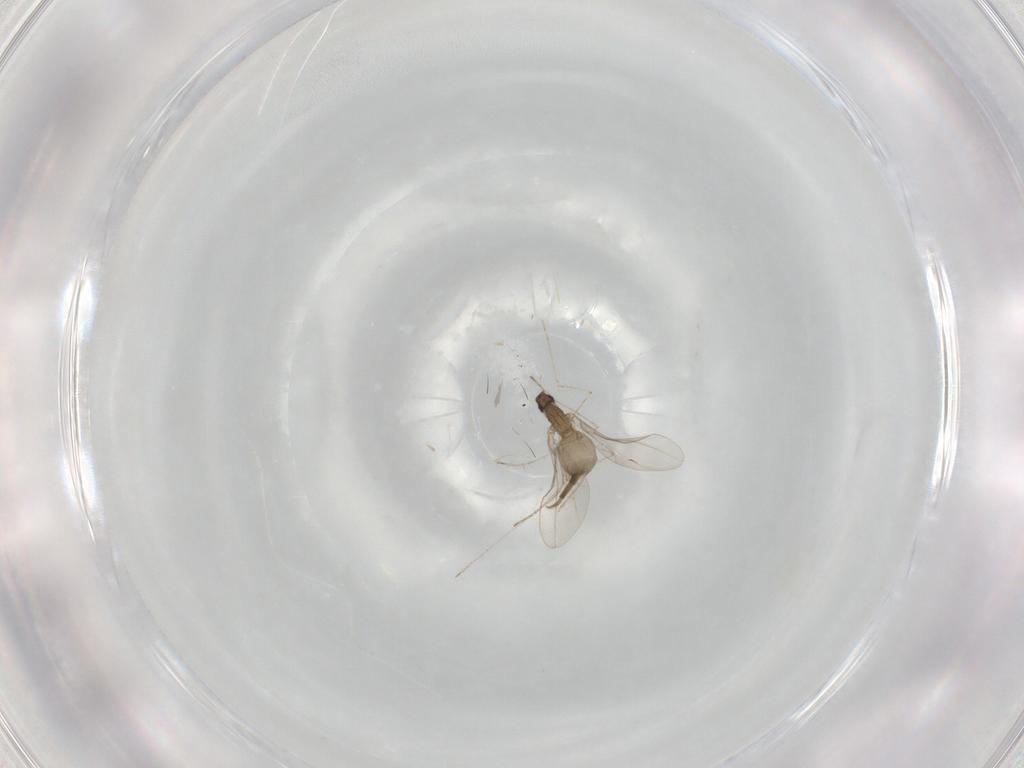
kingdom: Animalia
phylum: Arthropoda
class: Insecta
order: Diptera
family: Cecidomyiidae
